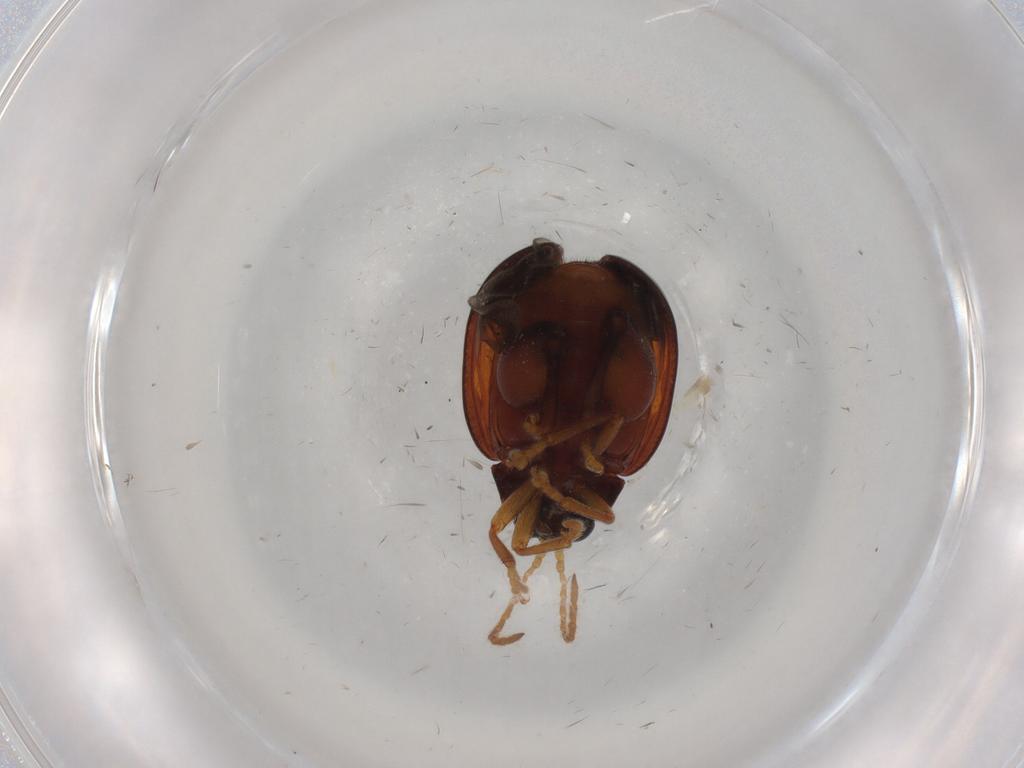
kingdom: Animalia
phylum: Arthropoda
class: Insecta
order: Coleoptera
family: Chrysomelidae
